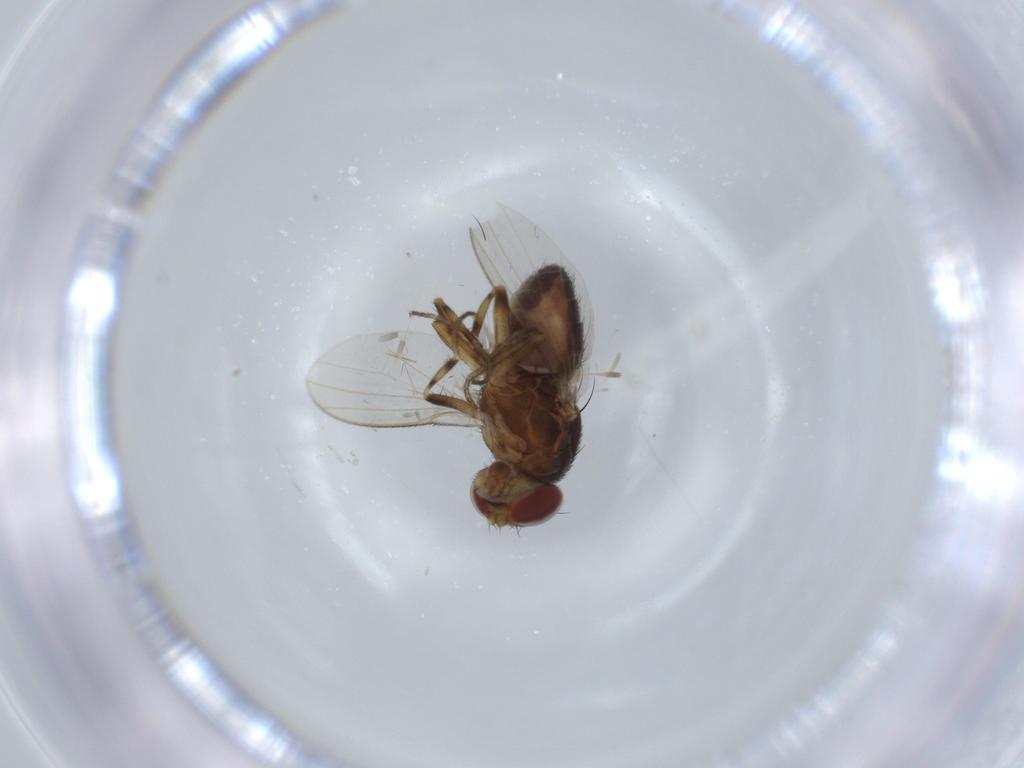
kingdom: Animalia
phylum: Arthropoda
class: Insecta
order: Diptera
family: Heleomyzidae
